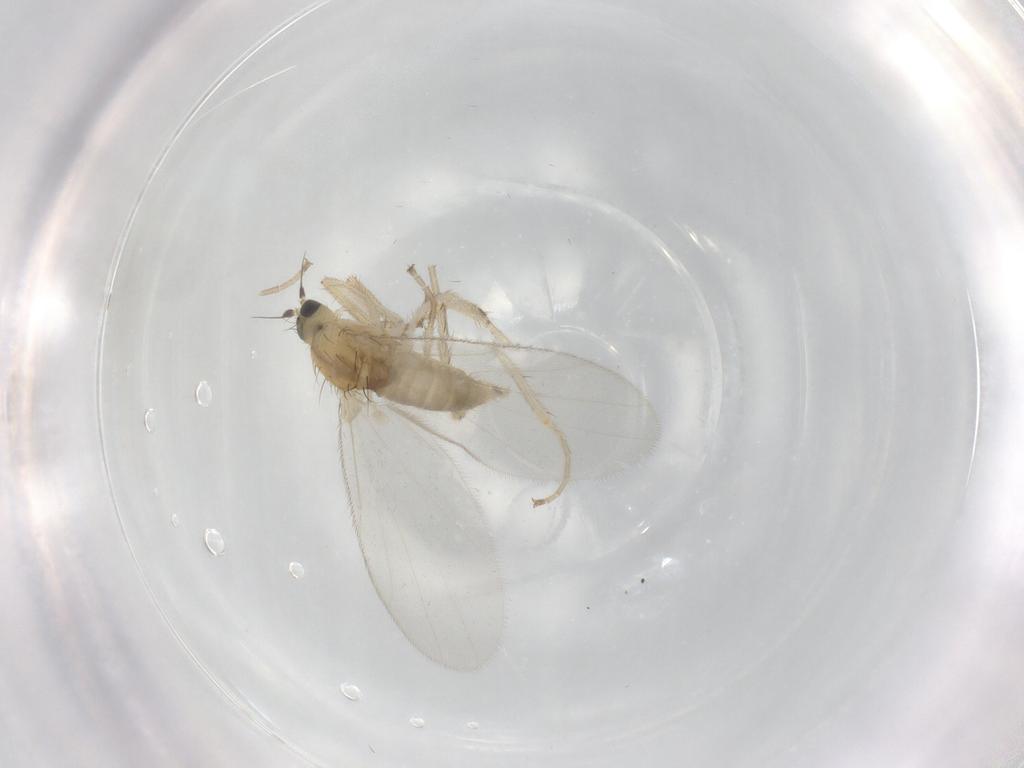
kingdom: Animalia
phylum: Arthropoda
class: Insecta
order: Diptera
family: Hybotidae
